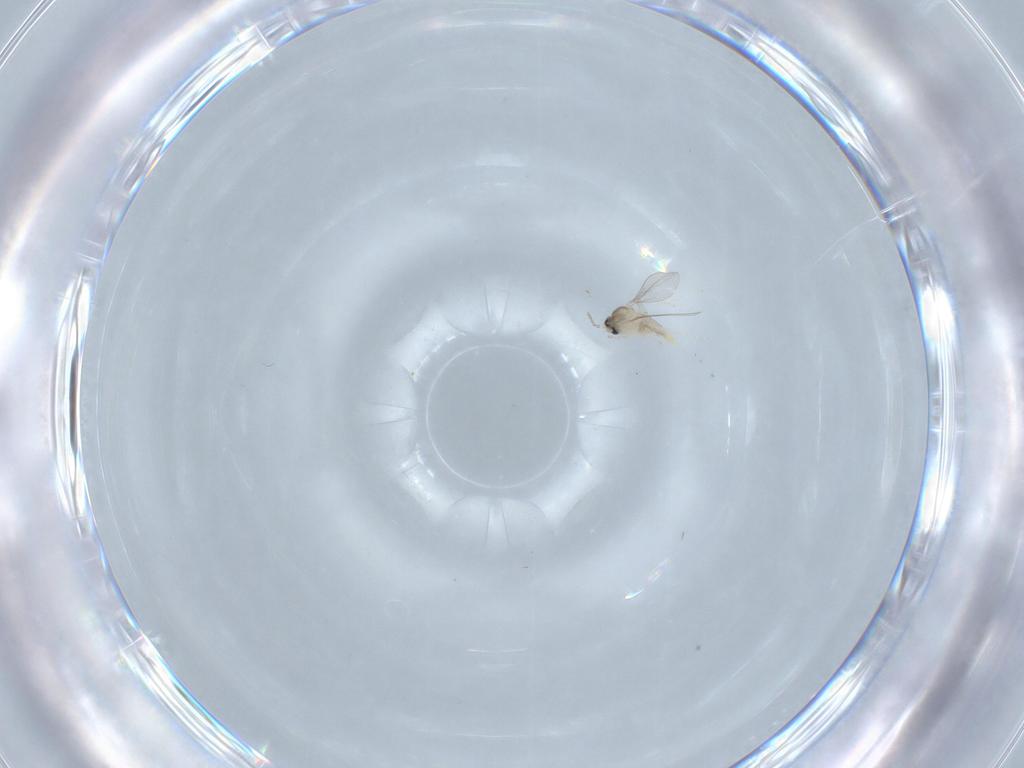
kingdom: Animalia
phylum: Arthropoda
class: Insecta
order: Diptera
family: Cecidomyiidae
